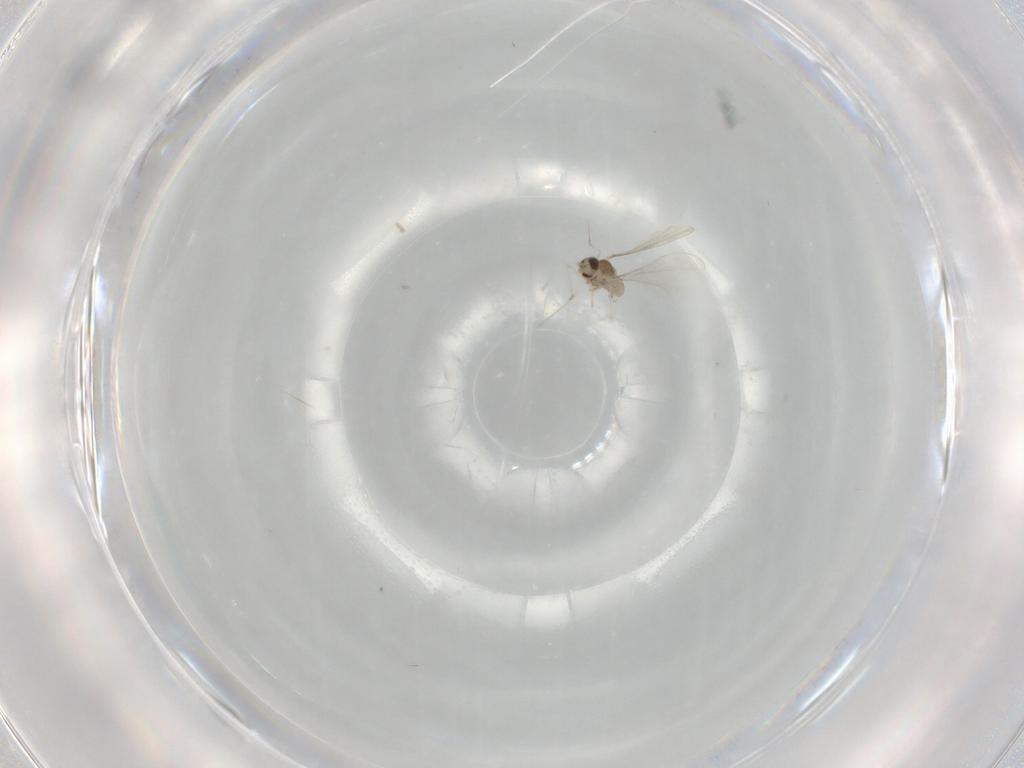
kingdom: Animalia
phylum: Arthropoda
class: Insecta
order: Diptera
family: Cecidomyiidae
